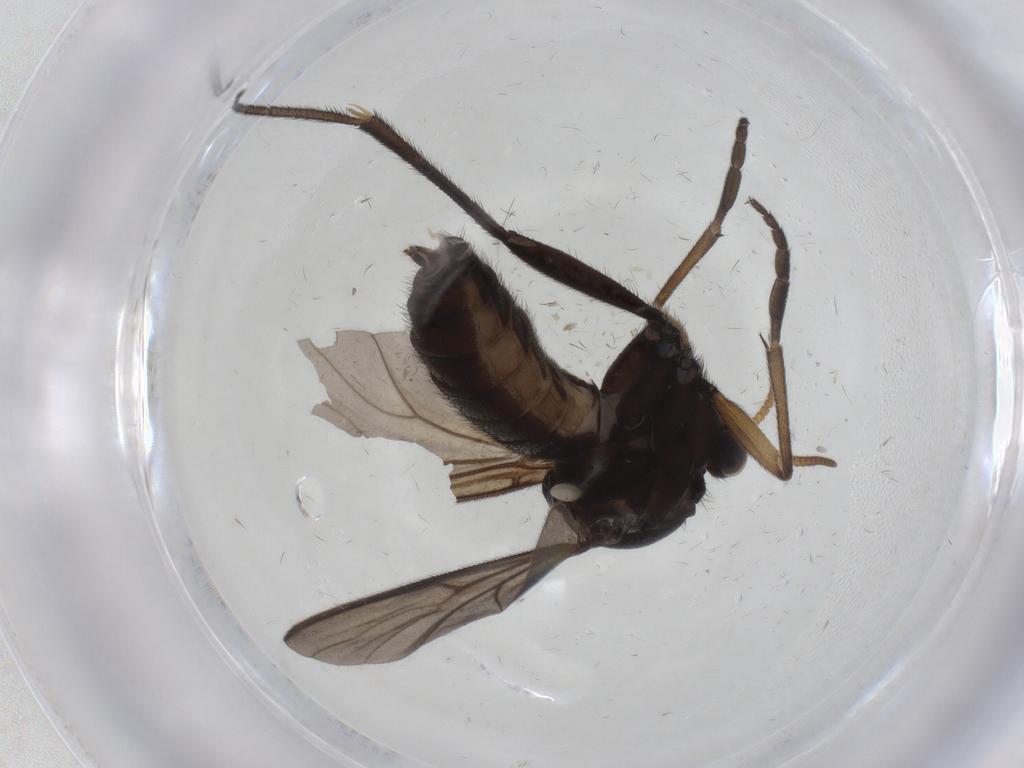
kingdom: Animalia
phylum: Arthropoda
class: Insecta
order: Diptera
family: Mycetophilidae
